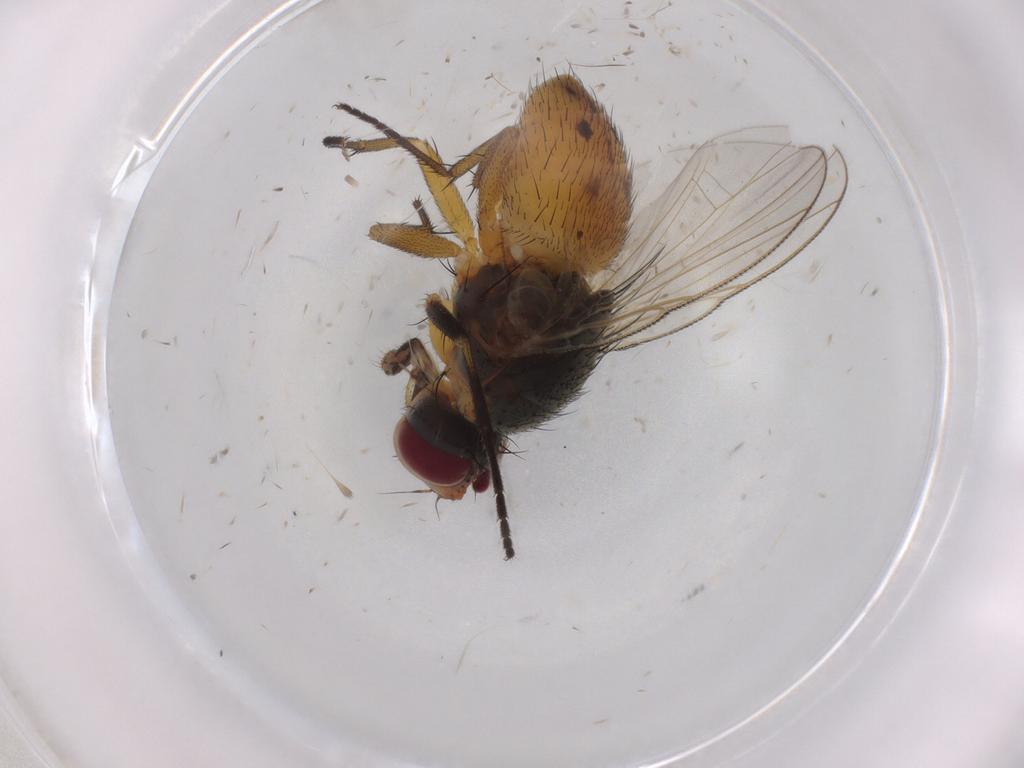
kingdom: Animalia
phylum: Arthropoda
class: Insecta
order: Diptera
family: Muscidae
